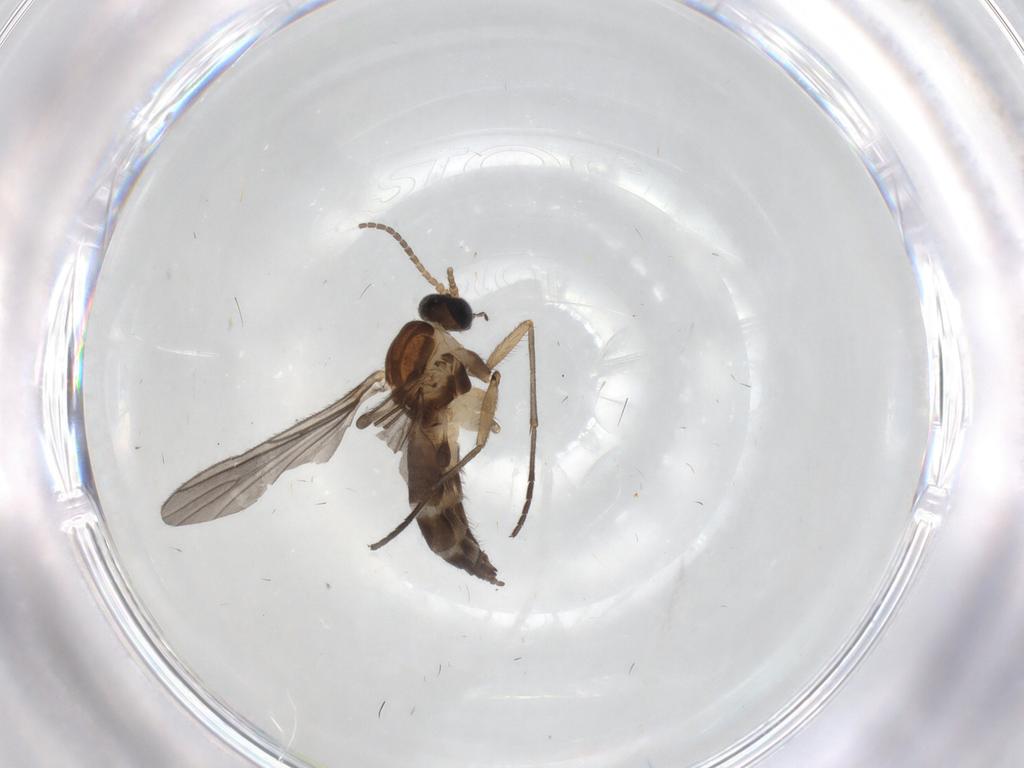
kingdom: Animalia
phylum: Arthropoda
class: Insecta
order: Diptera
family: Sciaridae
